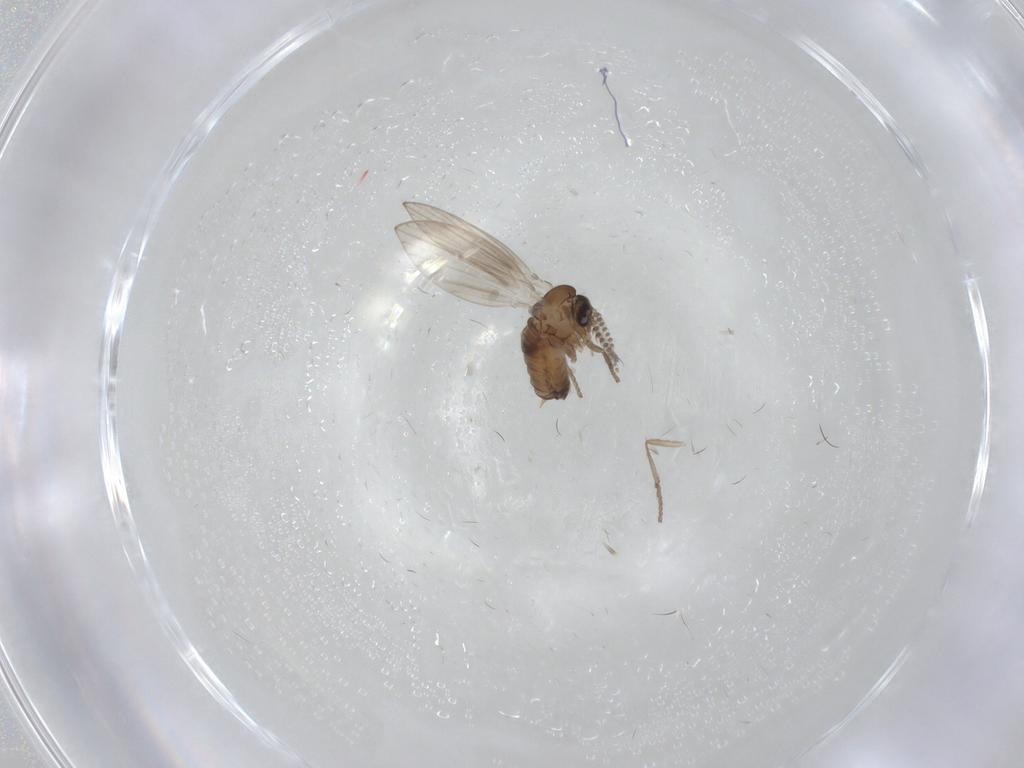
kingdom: Animalia
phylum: Arthropoda
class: Insecta
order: Diptera
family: Psychodidae
